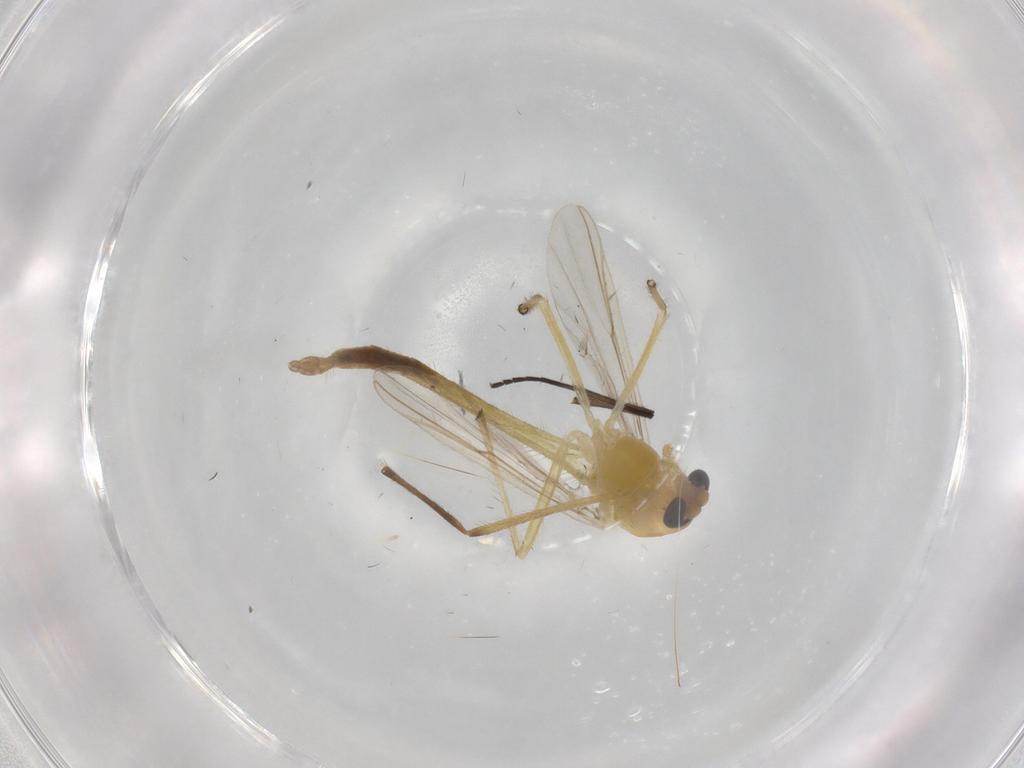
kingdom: Animalia
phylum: Arthropoda
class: Insecta
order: Diptera
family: Chironomidae
